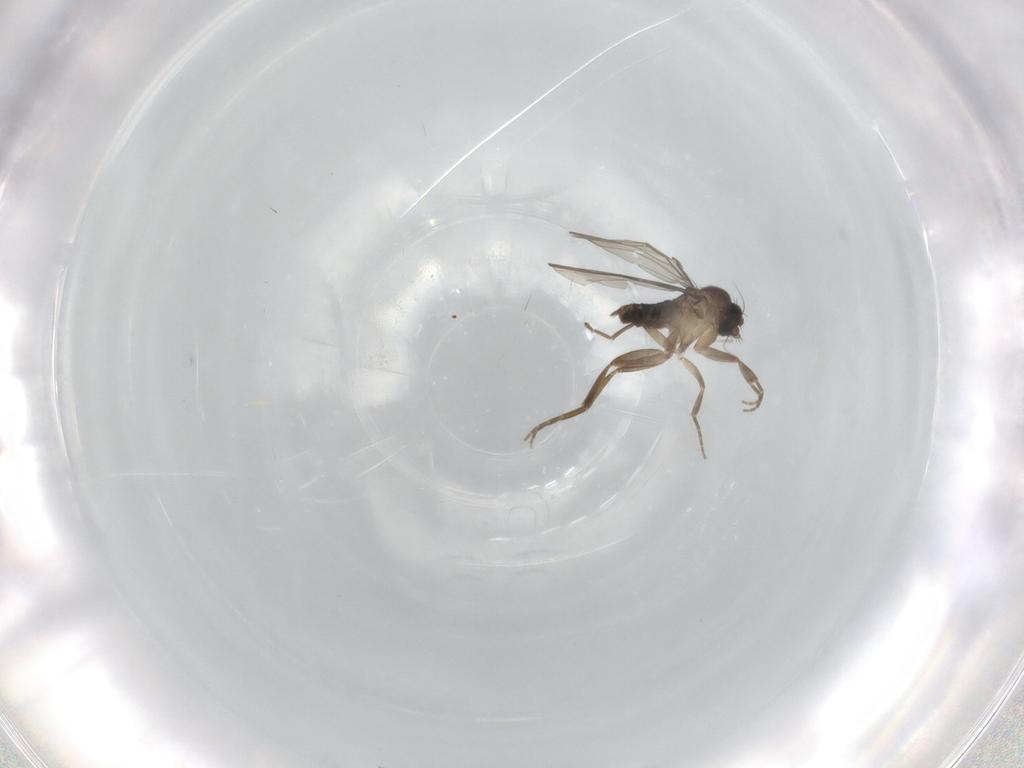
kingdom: Animalia
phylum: Arthropoda
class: Insecta
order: Diptera
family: Phoridae
